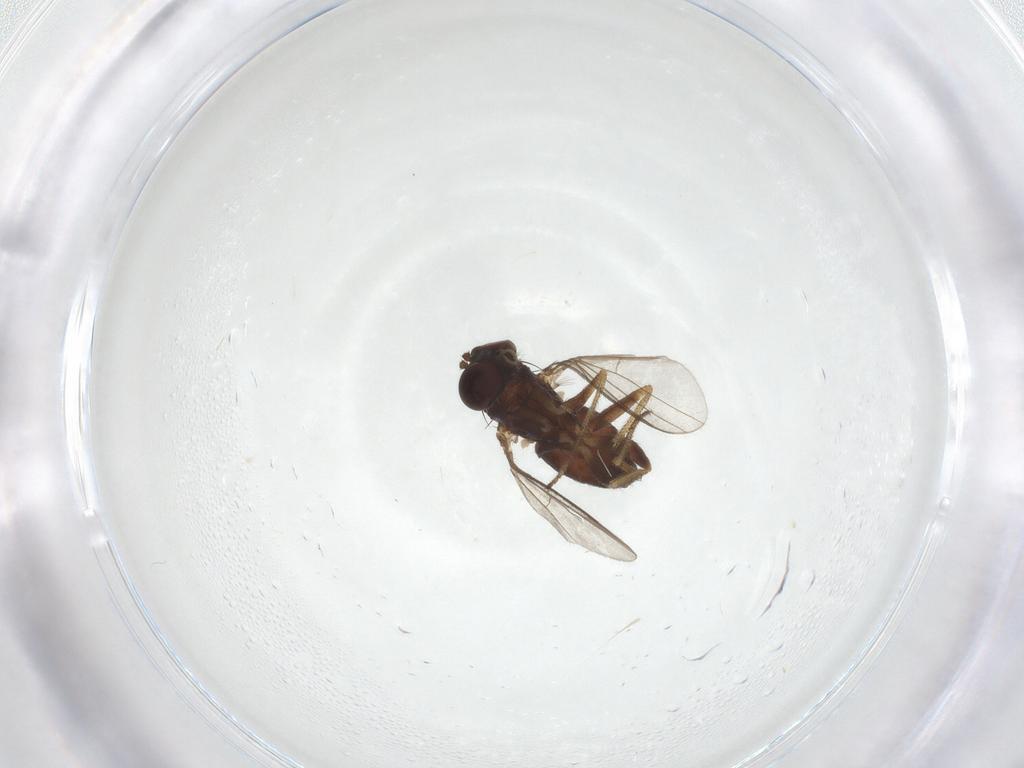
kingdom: Animalia
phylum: Arthropoda
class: Insecta
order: Diptera
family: Hybotidae
